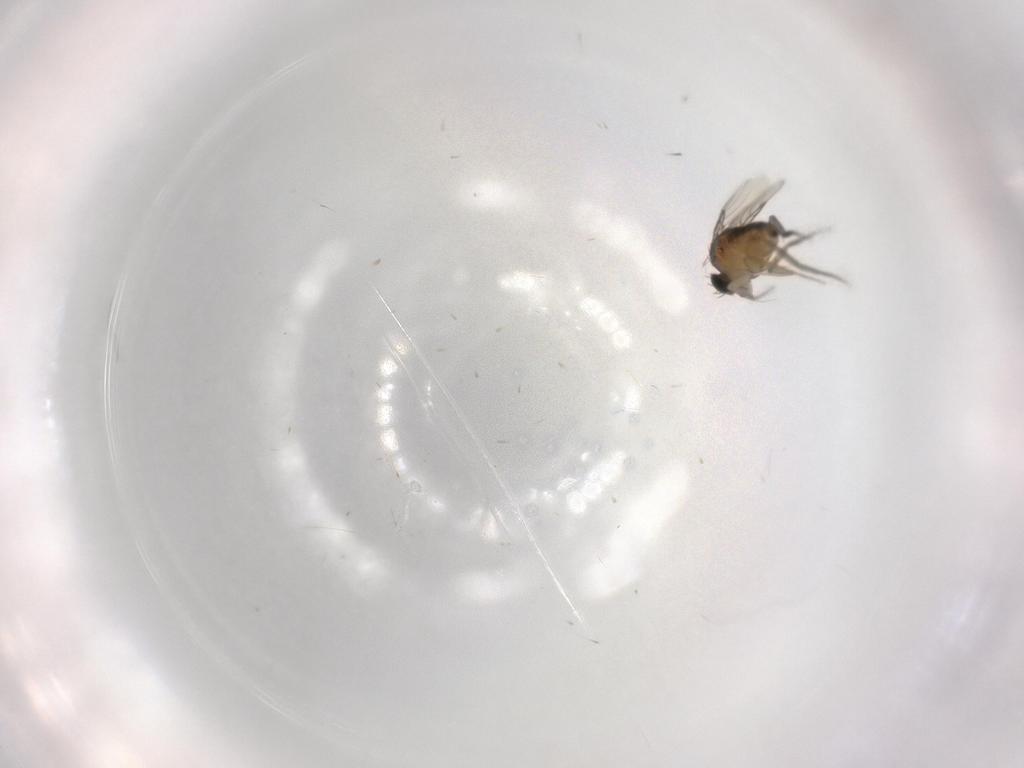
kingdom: Animalia
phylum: Arthropoda
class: Insecta
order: Diptera
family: Phoridae
